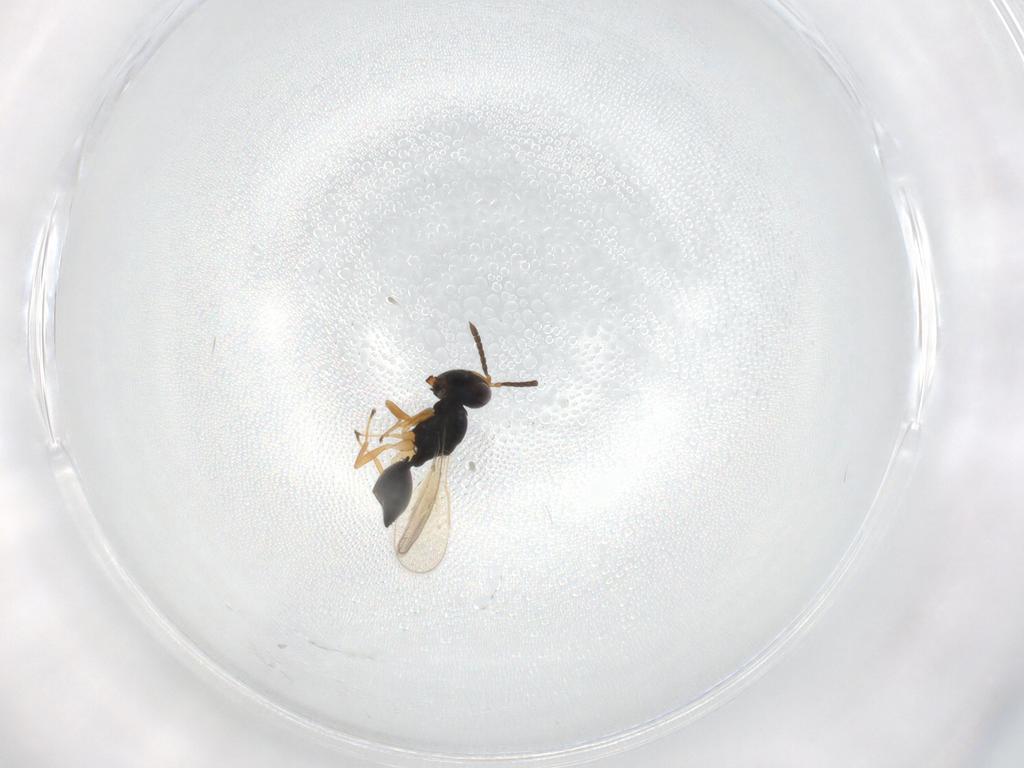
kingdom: Animalia
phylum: Arthropoda
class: Insecta
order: Hymenoptera
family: Pteromalidae
